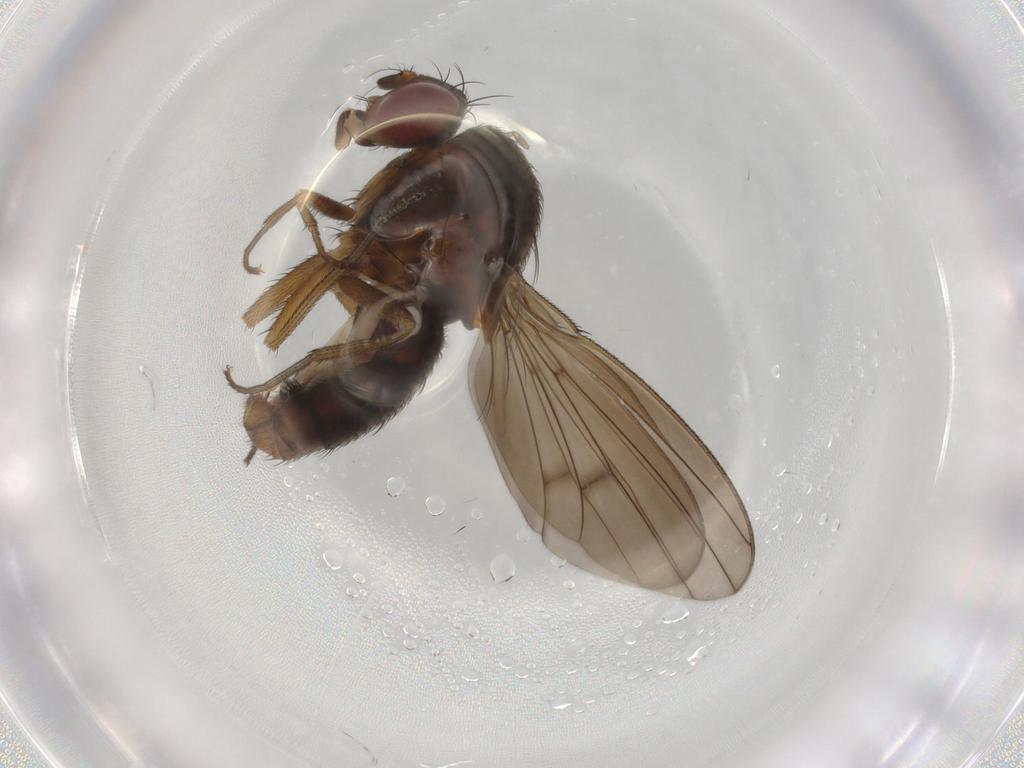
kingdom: Animalia
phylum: Arthropoda
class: Insecta
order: Diptera
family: Curtonotidae
